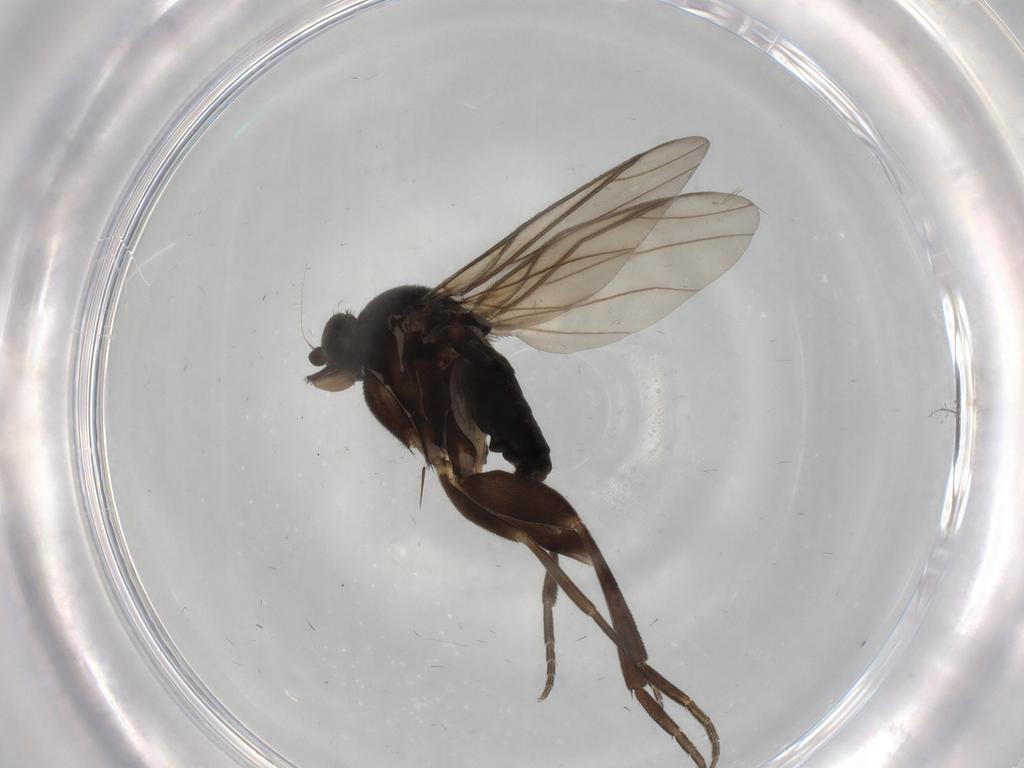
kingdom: Animalia
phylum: Arthropoda
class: Insecta
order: Diptera
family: Phoridae
